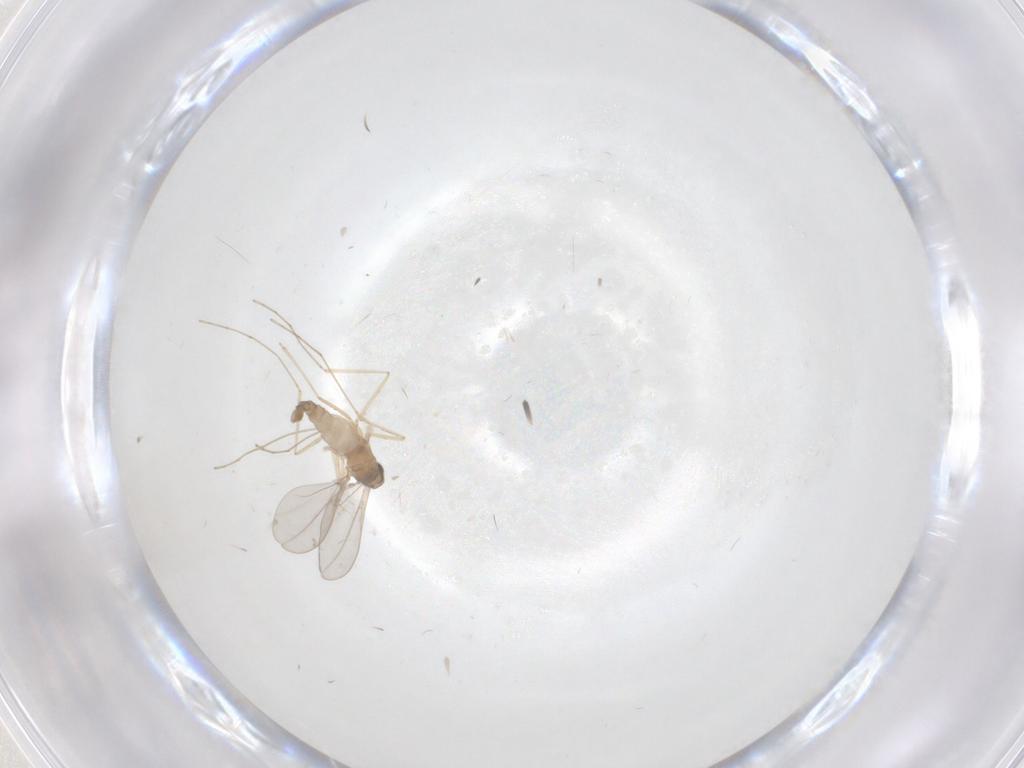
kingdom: Animalia
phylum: Arthropoda
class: Insecta
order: Diptera
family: Cecidomyiidae
